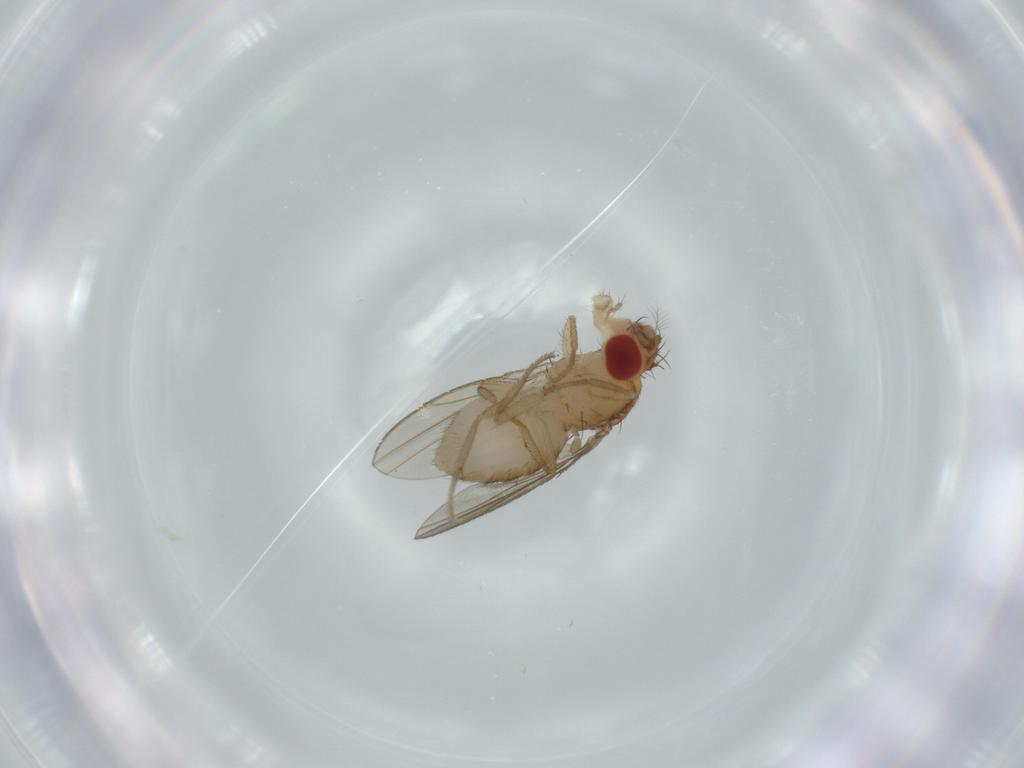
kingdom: Animalia
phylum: Arthropoda
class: Insecta
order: Diptera
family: Drosophilidae
